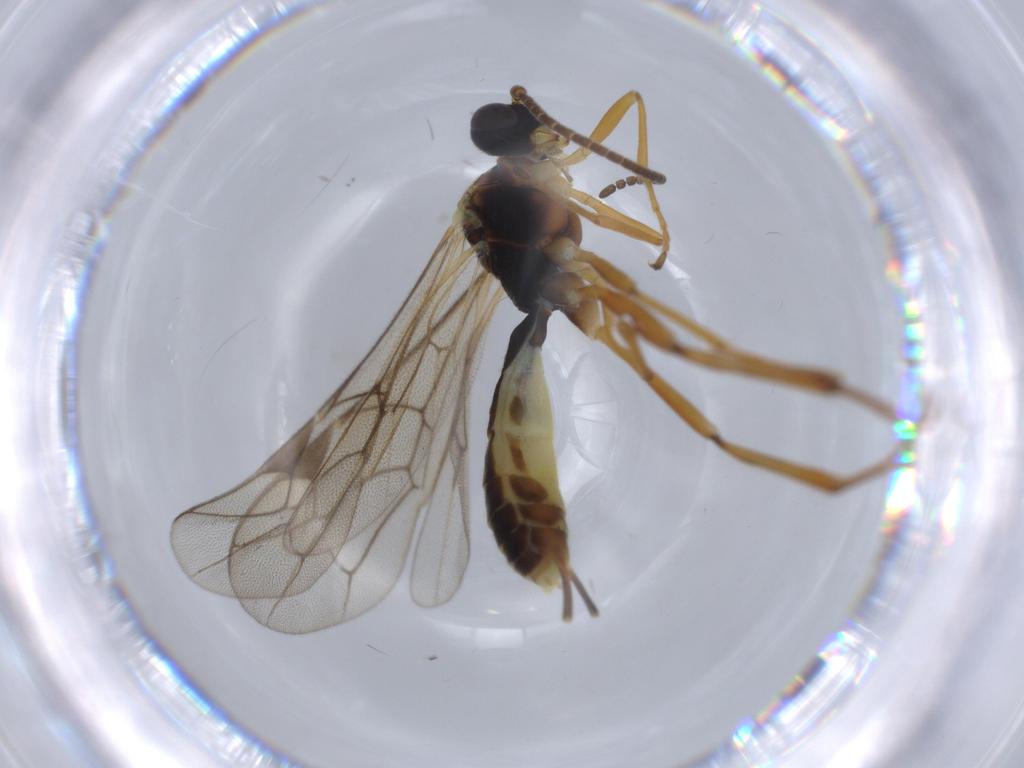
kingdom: Animalia
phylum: Arthropoda
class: Insecta
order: Hymenoptera
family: Ichneumonidae
